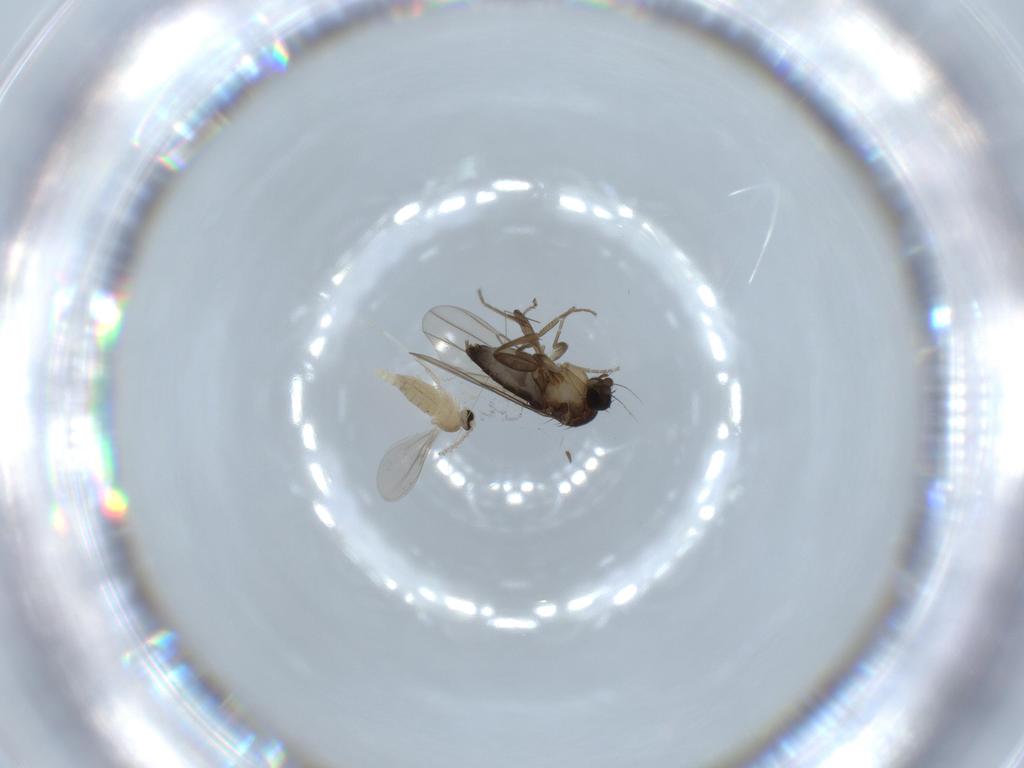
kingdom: Animalia
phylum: Arthropoda
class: Insecta
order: Diptera
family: Phoridae
